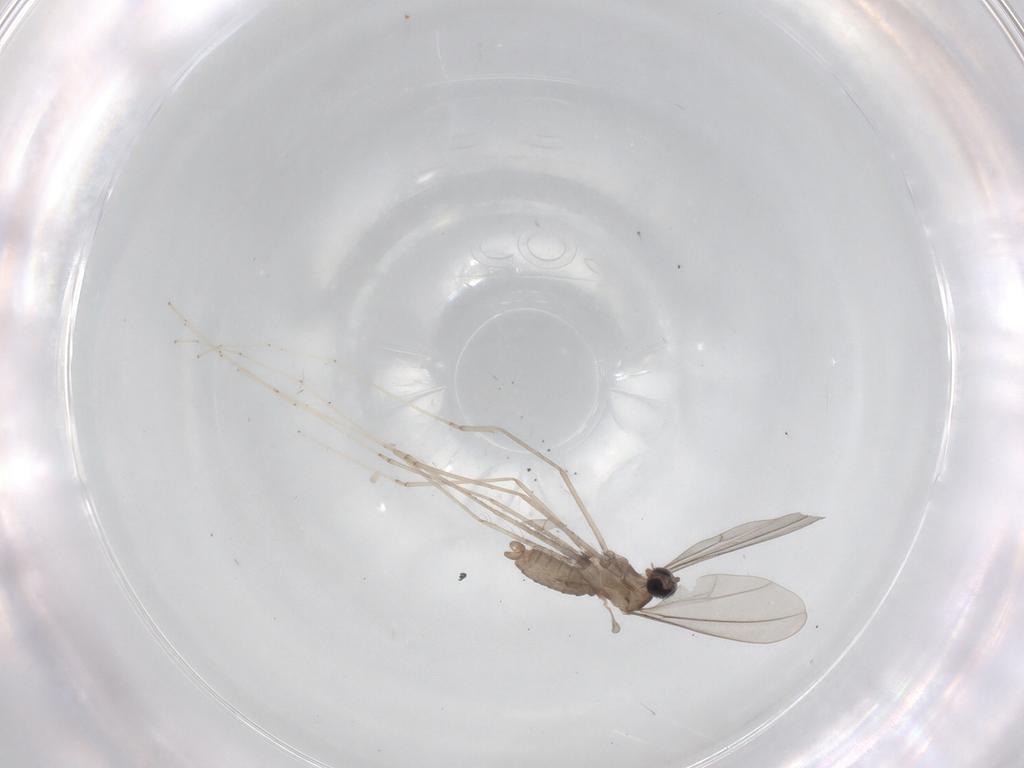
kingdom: Animalia
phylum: Arthropoda
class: Insecta
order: Diptera
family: Cecidomyiidae
